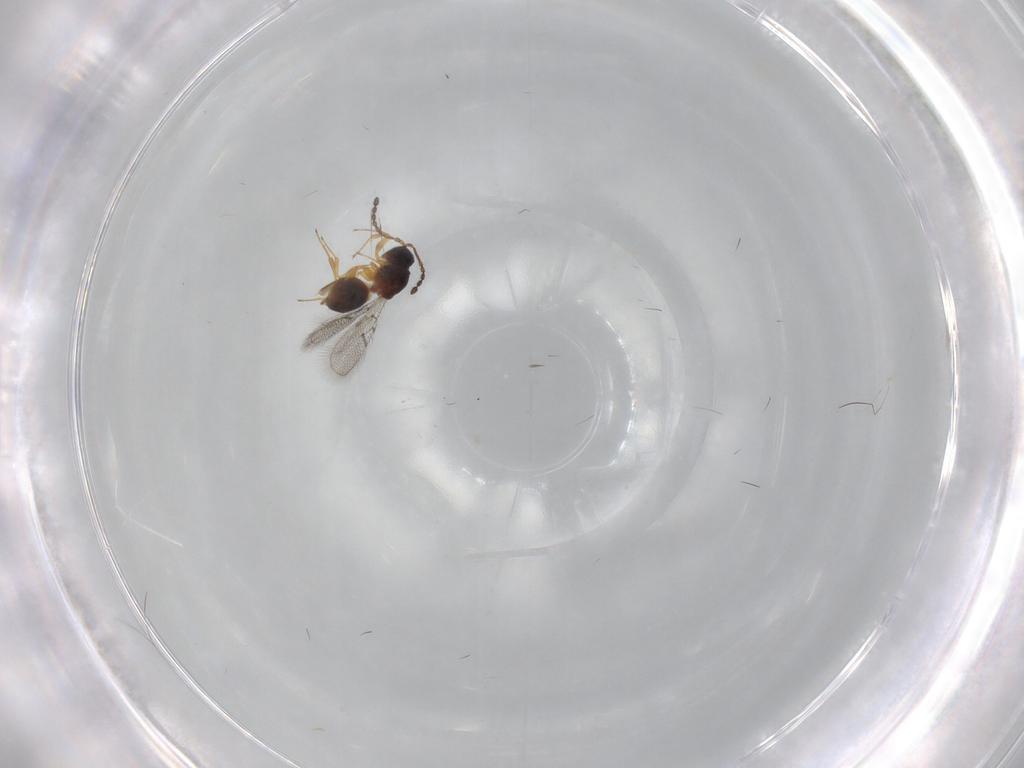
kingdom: Animalia
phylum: Arthropoda
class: Insecta
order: Hymenoptera
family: Figitidae
